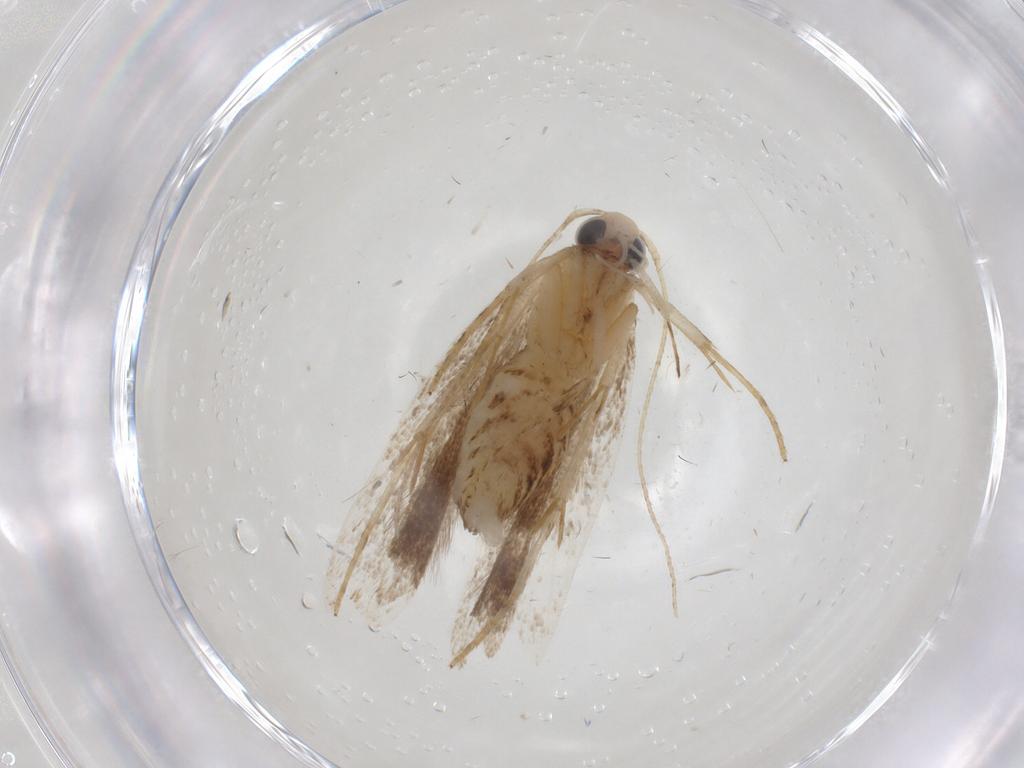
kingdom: Animalia
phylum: Arthropoda
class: Insecta
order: Lepidoptera
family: Gelechiidae
